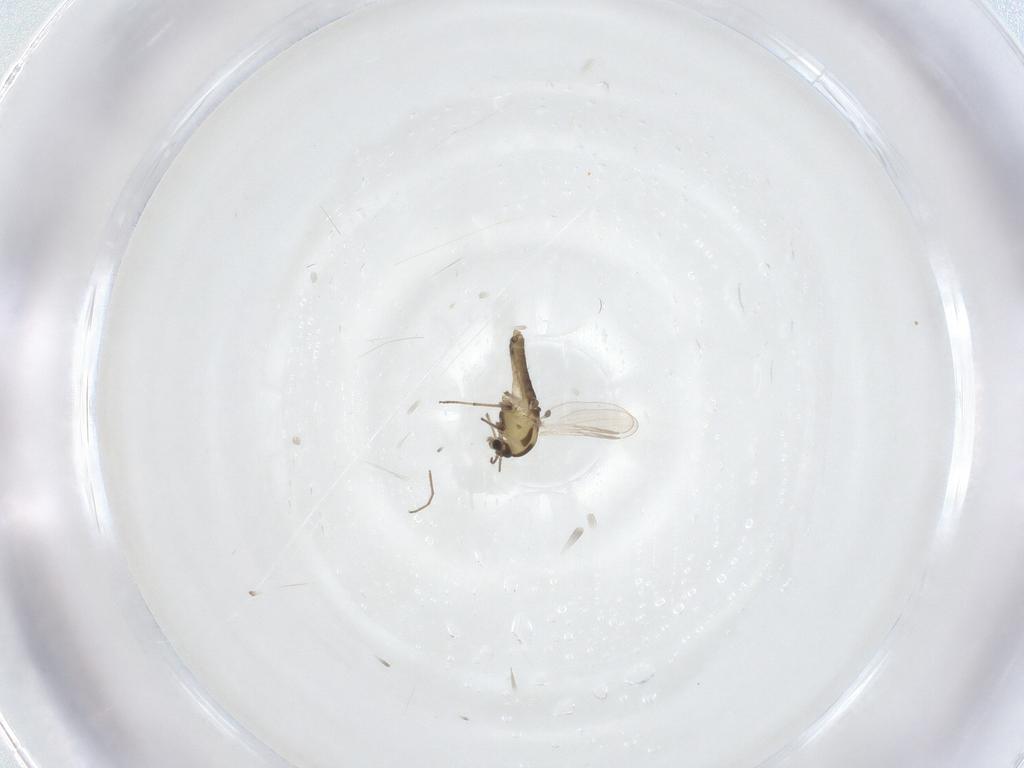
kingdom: Animalia
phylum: Arthropoda
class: Insecta
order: Diptera
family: Chironomidae
